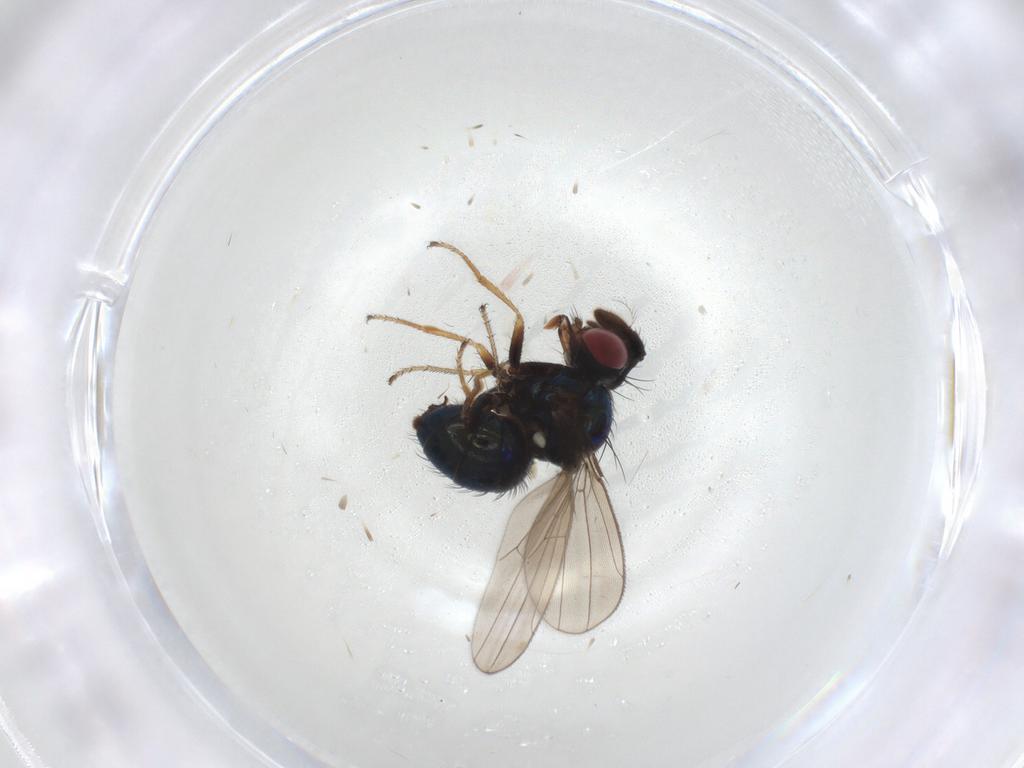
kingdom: Animalia
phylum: Arthropoda
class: Insecta
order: Diptera
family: Ephydridae
